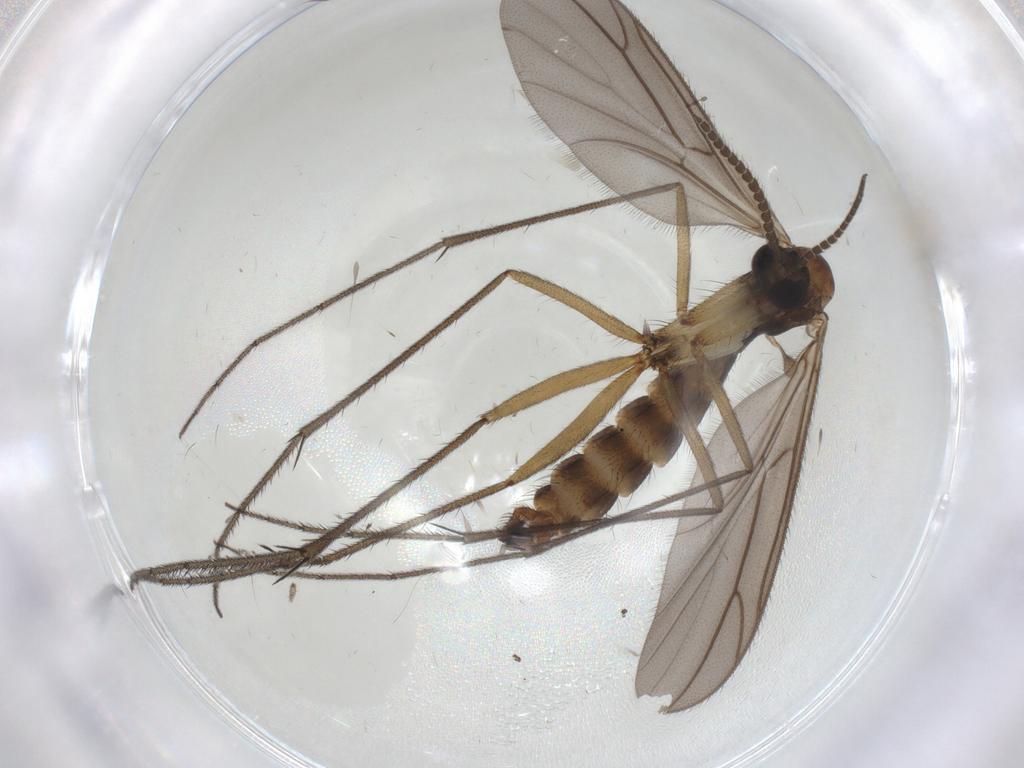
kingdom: Animalia
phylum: Arthropoda
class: Insecta
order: Diptera
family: Ditomyiidae
